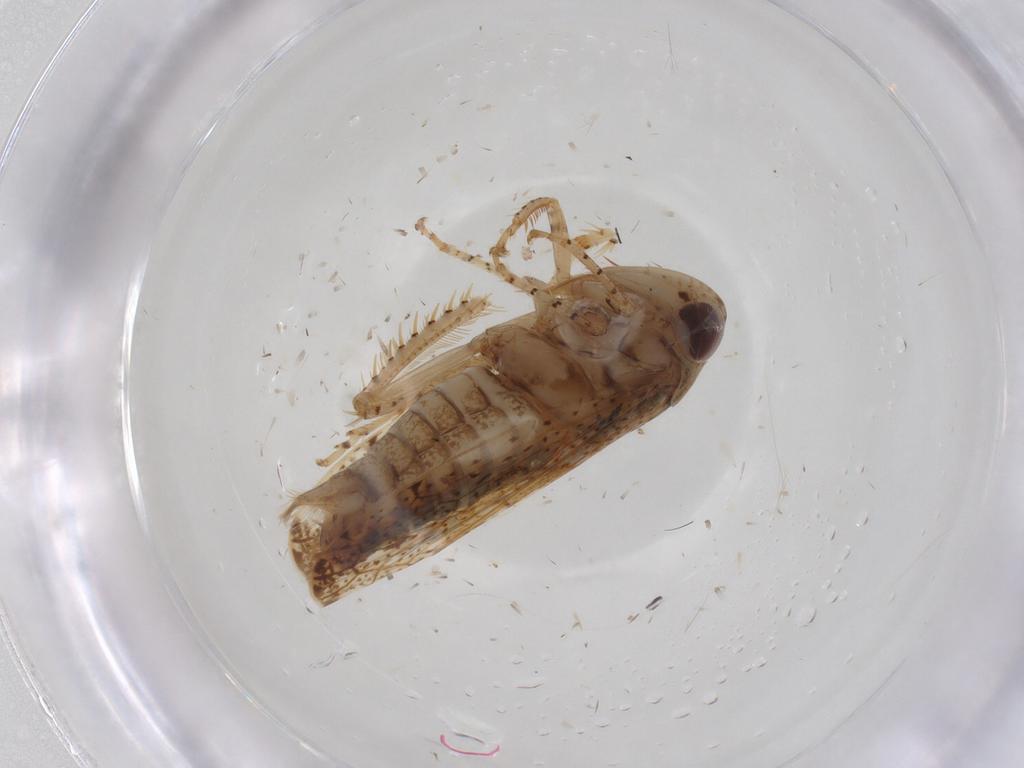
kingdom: Animalia
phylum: Arthropoda
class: Insecta
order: Hemiptera
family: Cicadellidae
